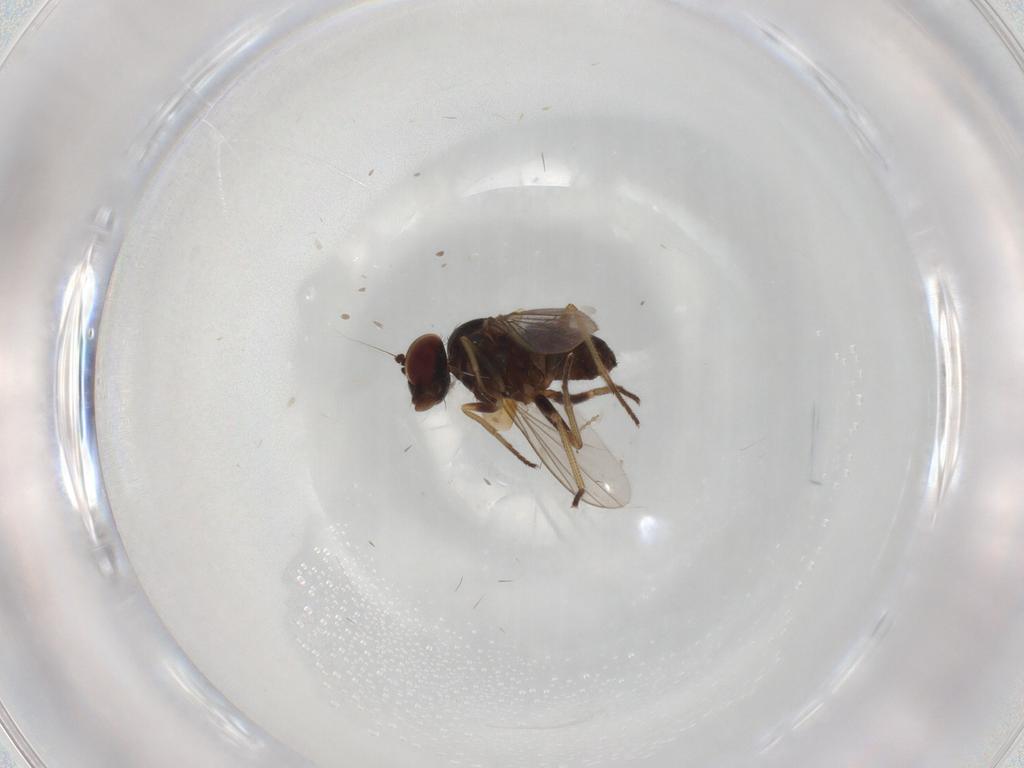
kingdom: Animalia
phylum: Arthropoda
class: Insecta
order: Diptera
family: Dolichopodidae
